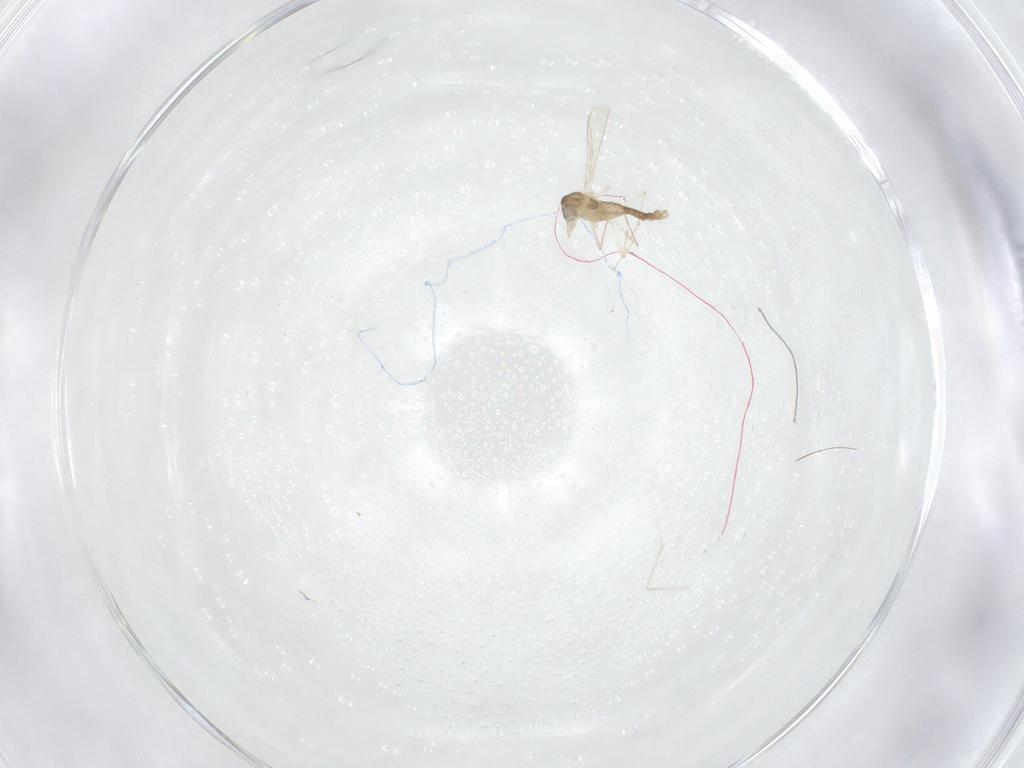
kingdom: Animalia
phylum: Arthropoda
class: Insecta
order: Diptera
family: Cecidomyiidae
